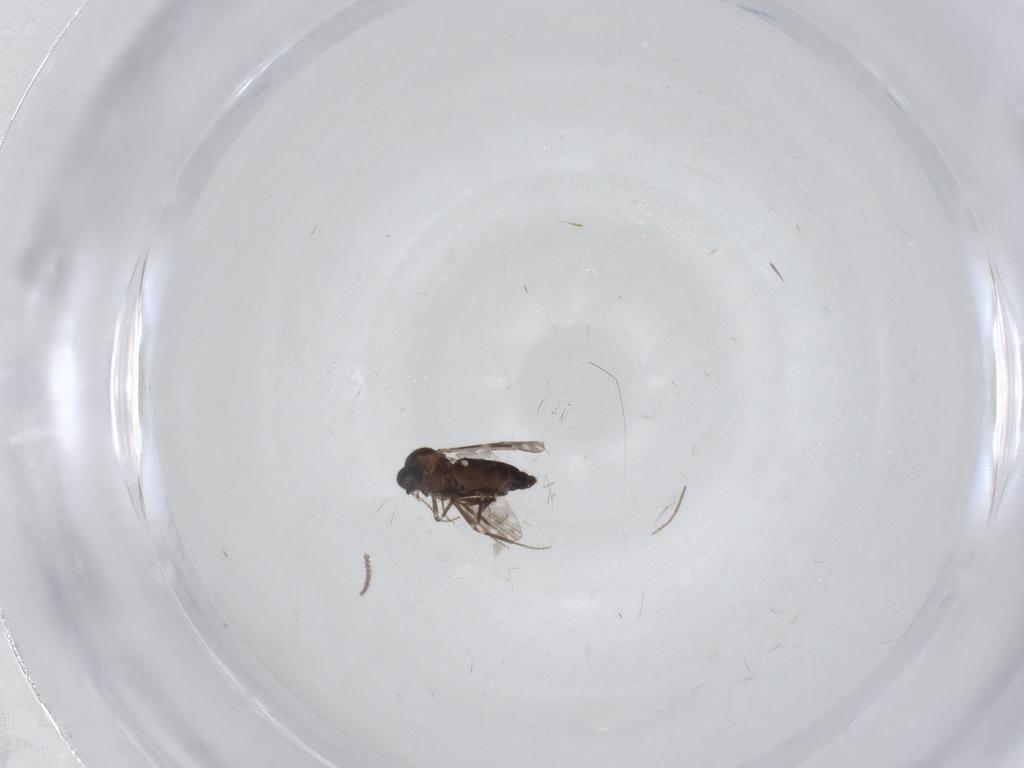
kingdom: Animalia
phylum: Arthropoda
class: Insecta
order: Diptera
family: Chironomidae
